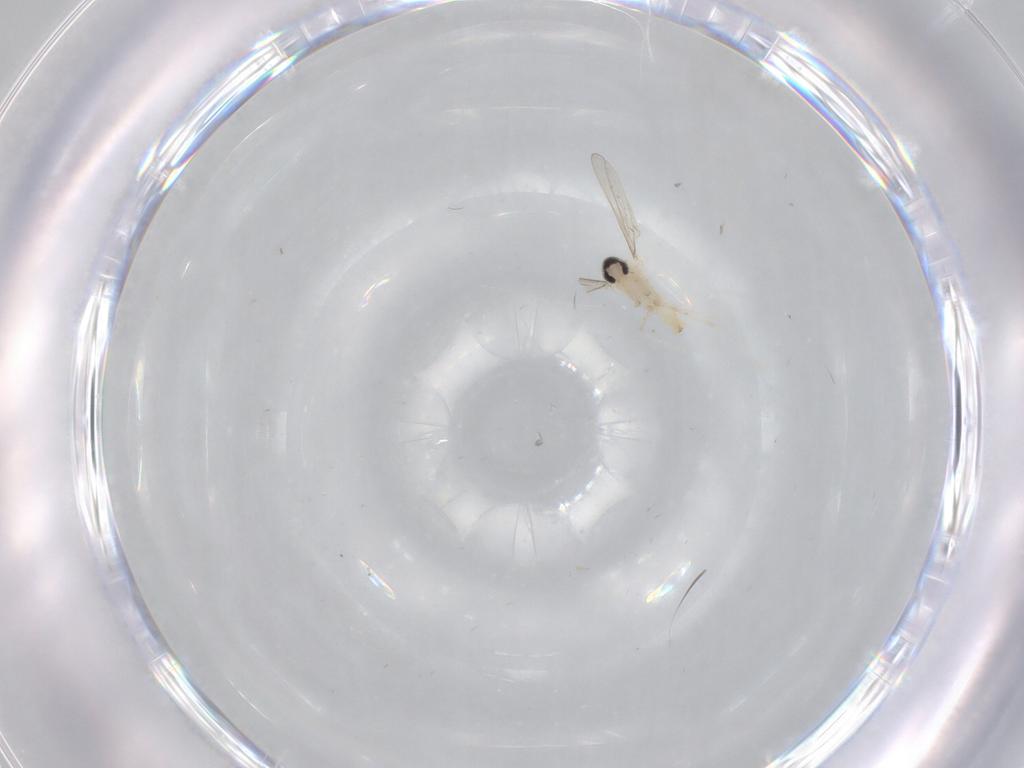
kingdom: Animalia
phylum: Arthropoda
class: Insecta
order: Diptera
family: Cecidomyiidae
